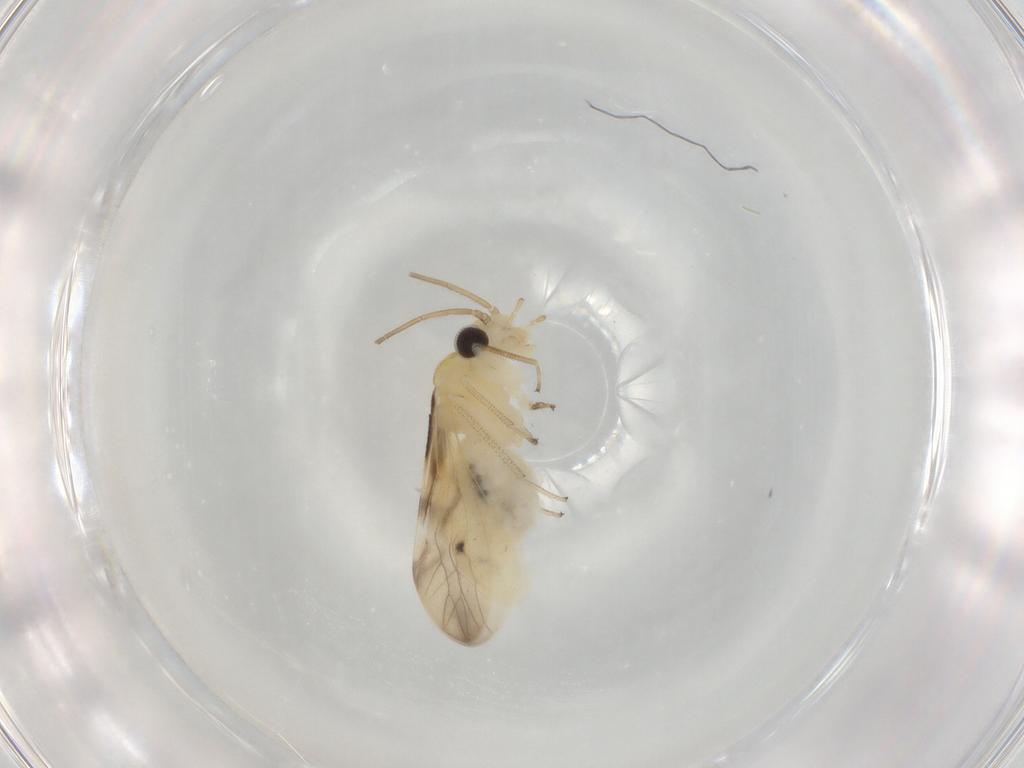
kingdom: Animalia
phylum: Arthropoda
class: Insecta
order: Psocodea
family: Caeciliusidae
